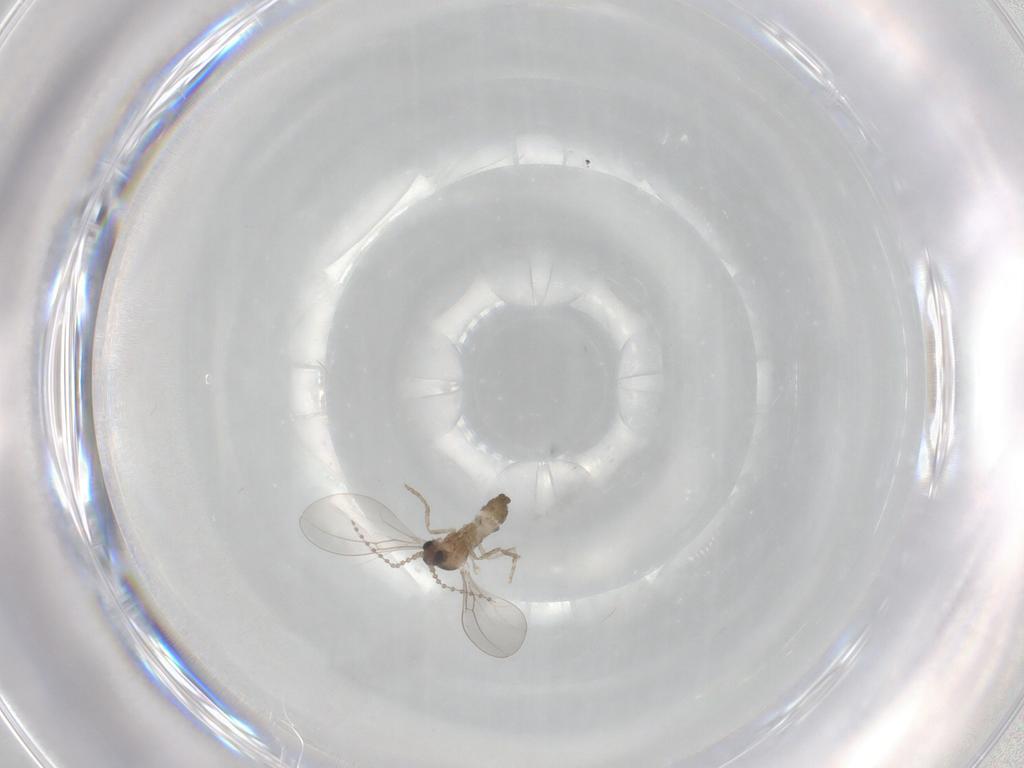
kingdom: Animalia
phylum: Arthropoda
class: Insecta
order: Diptera
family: Cecidomyiidae
